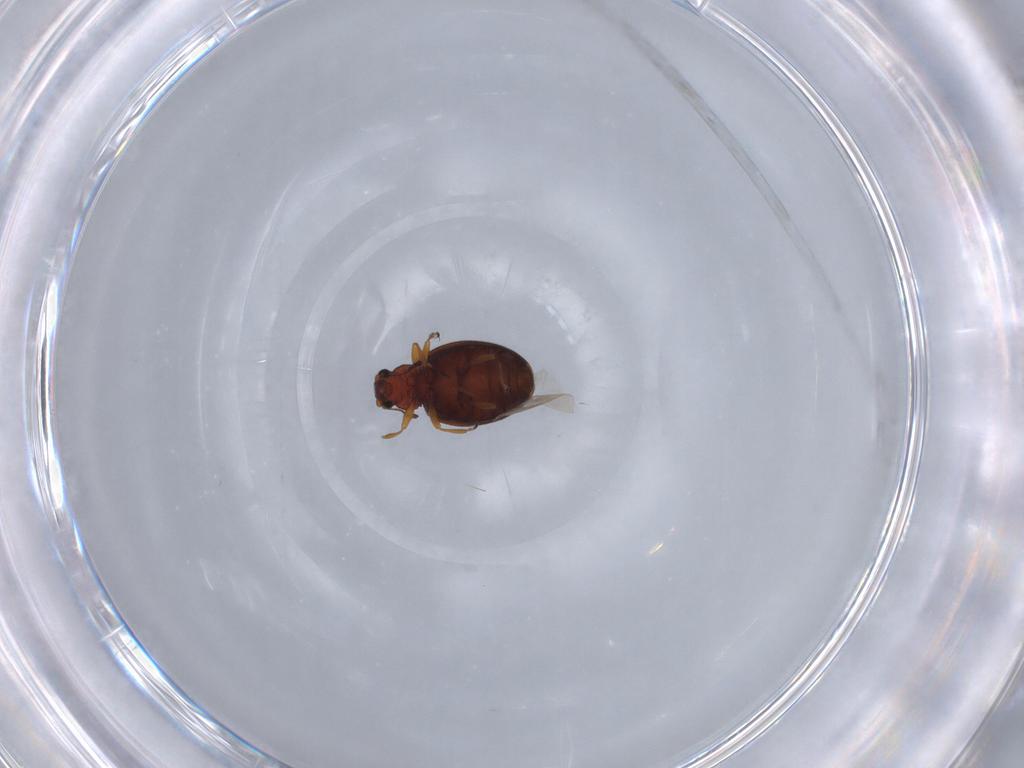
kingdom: Animalia
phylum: Arthropoda
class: Insecta
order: Coleoptera
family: Latridiidae
